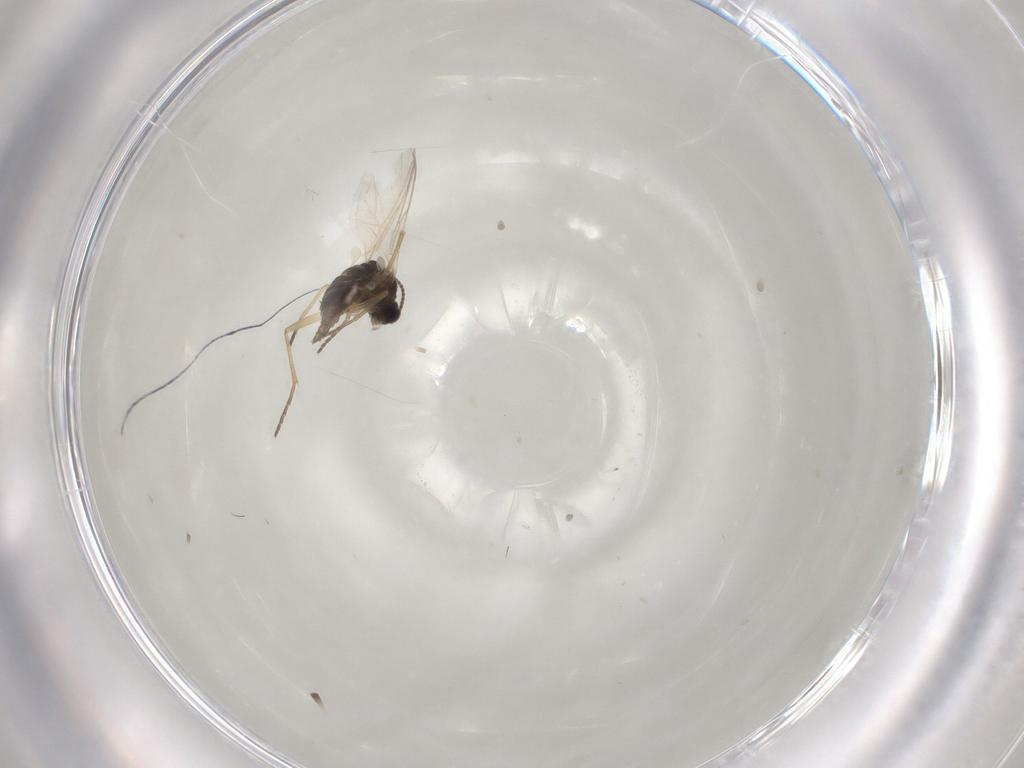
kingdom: Animalia
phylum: Arthropoda
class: Insecta
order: Diptera
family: Sciaridae
